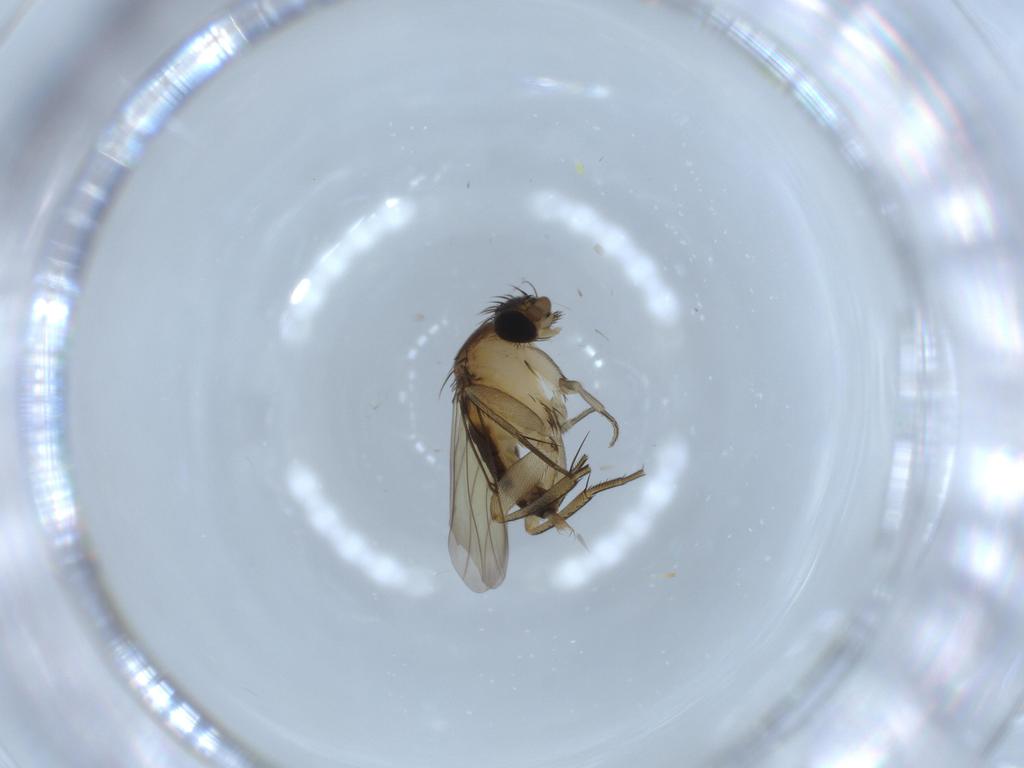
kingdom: Animalia
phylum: Arthropoda
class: Insecta
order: Diptera
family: Phoridae
